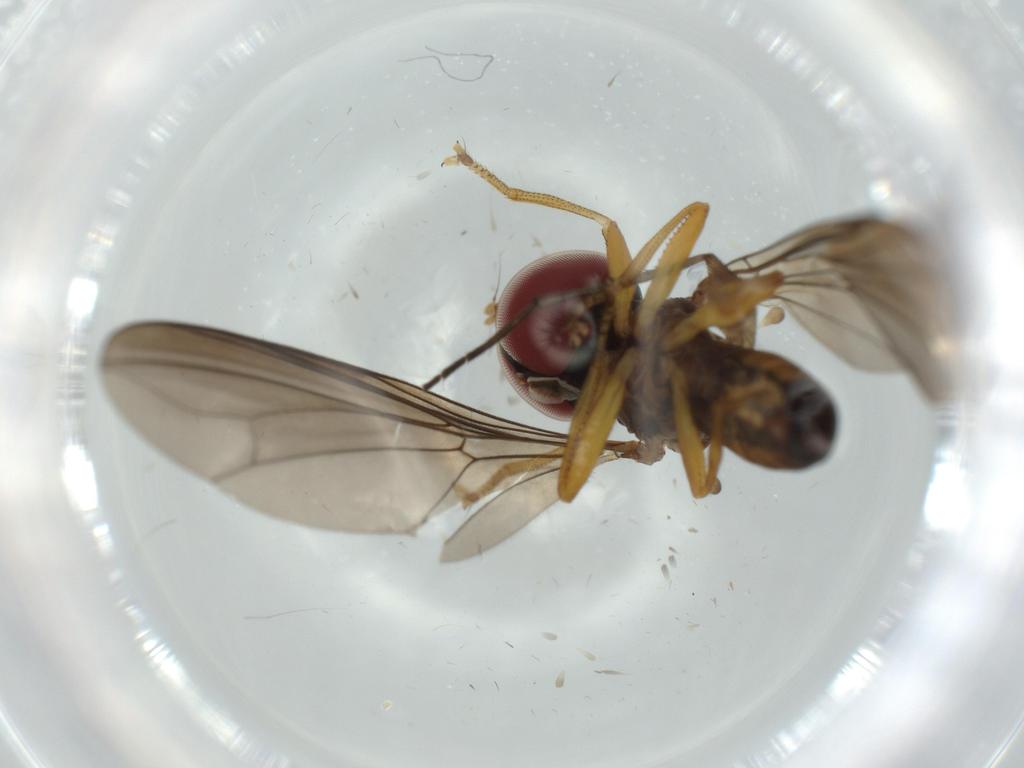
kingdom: Animalia
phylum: Arthropoda
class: Insecta
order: Diptera
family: Pipunculidae
